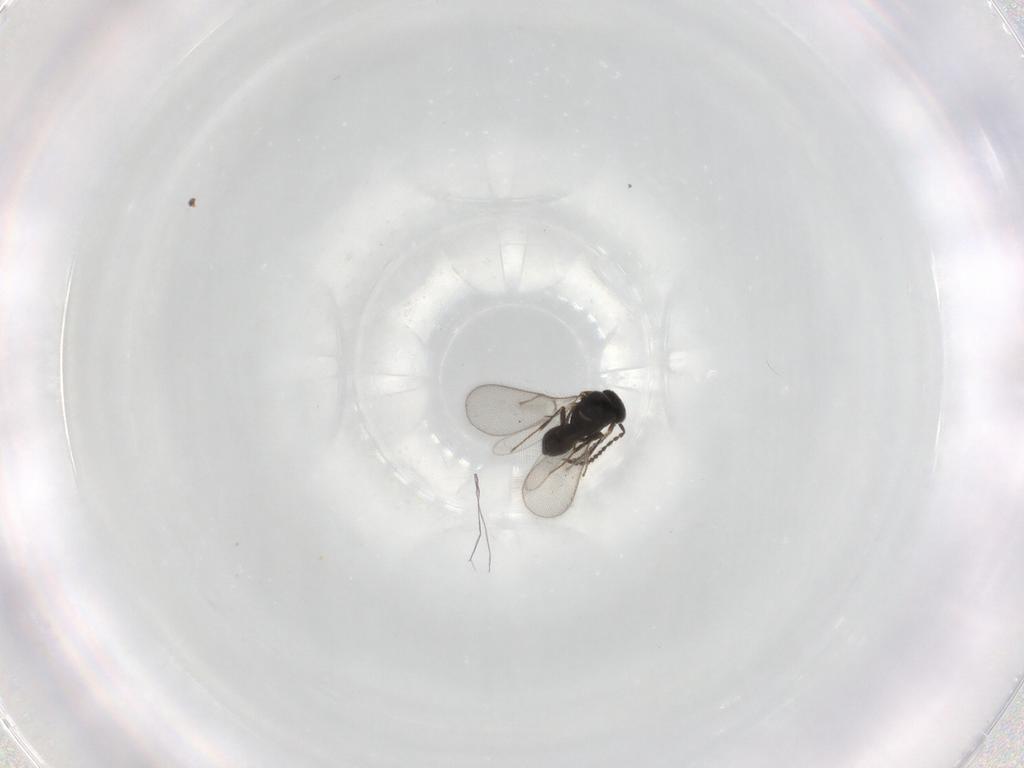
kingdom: Animalia
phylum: Arthropoda
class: Insecta
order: Hymenoptera
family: Scelionidae
